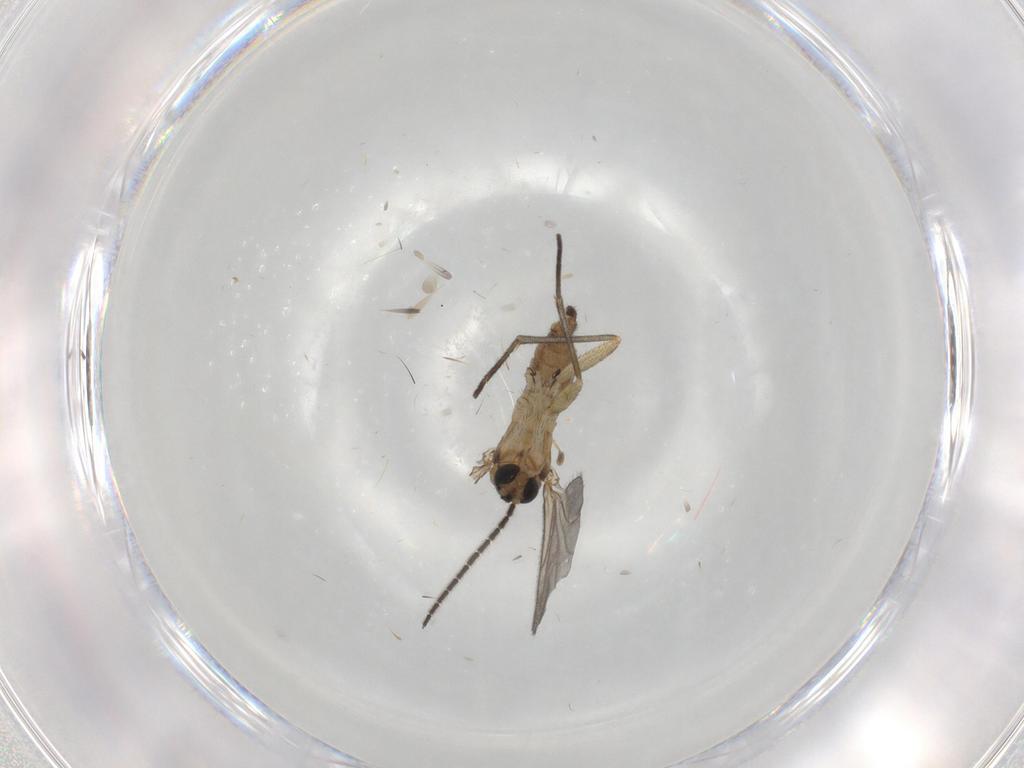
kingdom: Animalia
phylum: Arthropoda
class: Insecta
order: Diptera
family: Sciaridae
